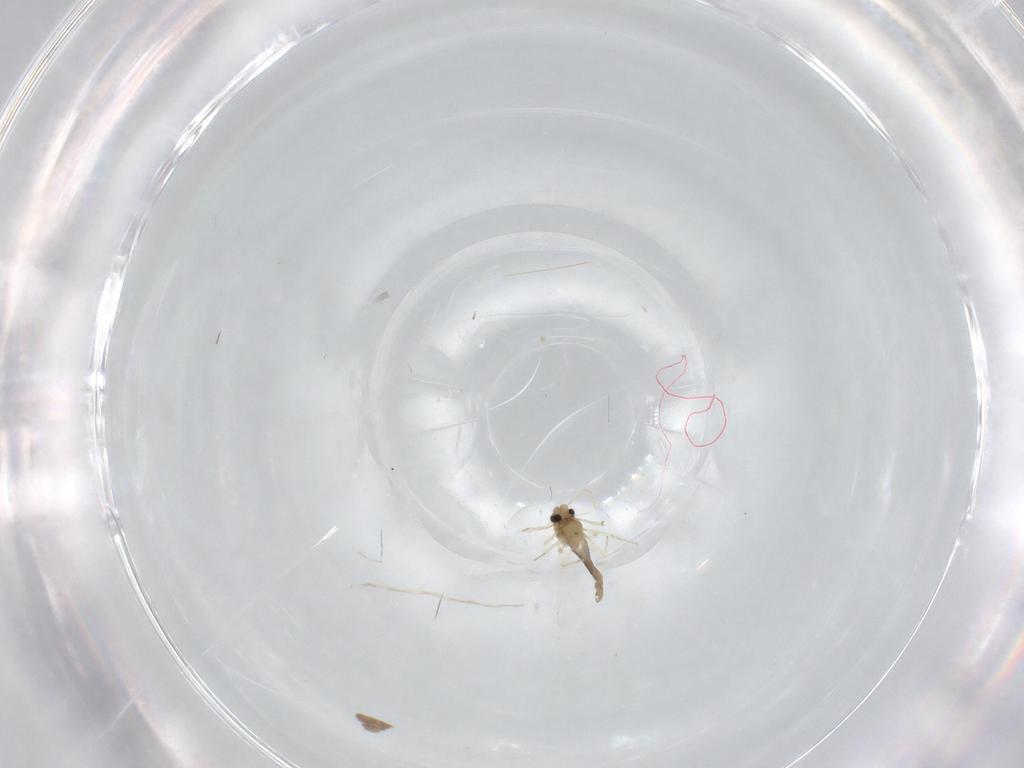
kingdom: Animalia
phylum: Arthropoda
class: Insecta
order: Diptera
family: Chironomidae
